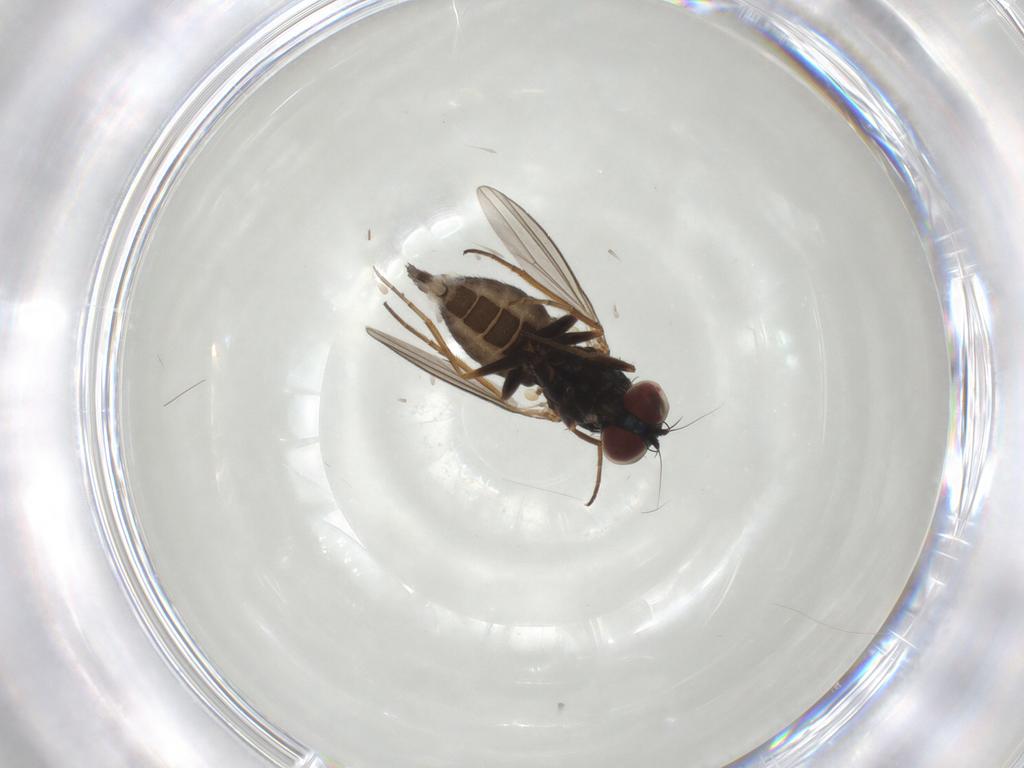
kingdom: Animalia
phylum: Arthropoda
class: Insecta
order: Diptera
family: Dolichopodidae
